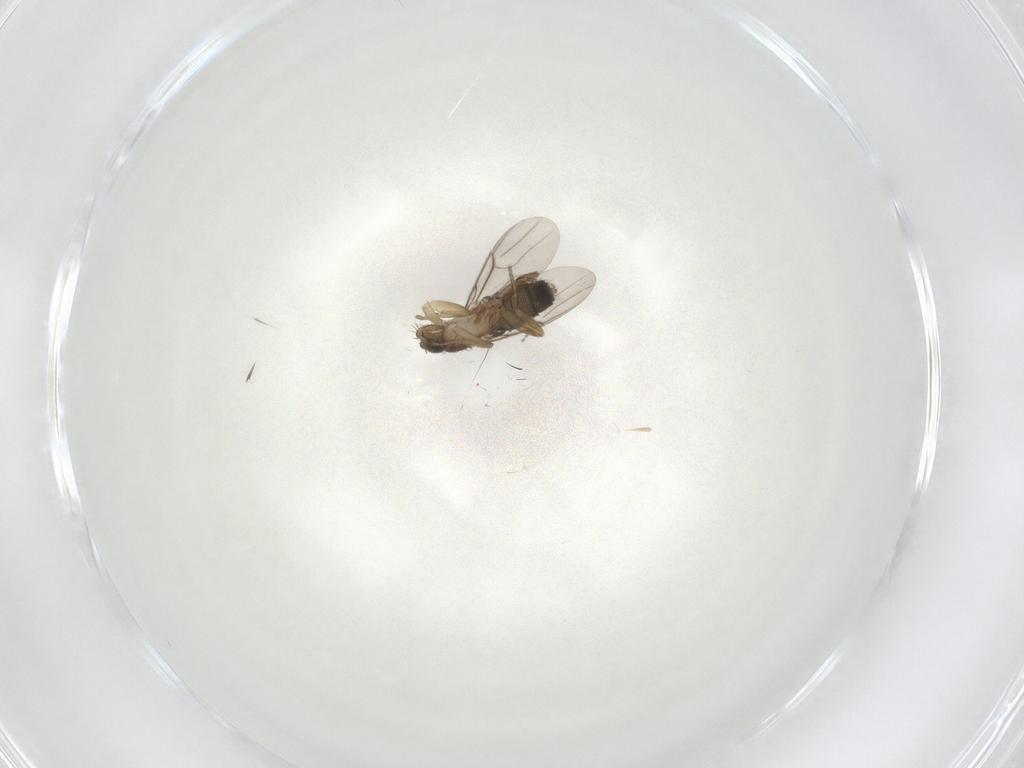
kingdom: Animalia
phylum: Arthropoda
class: Insecta
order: Diptera
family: Phoridae
